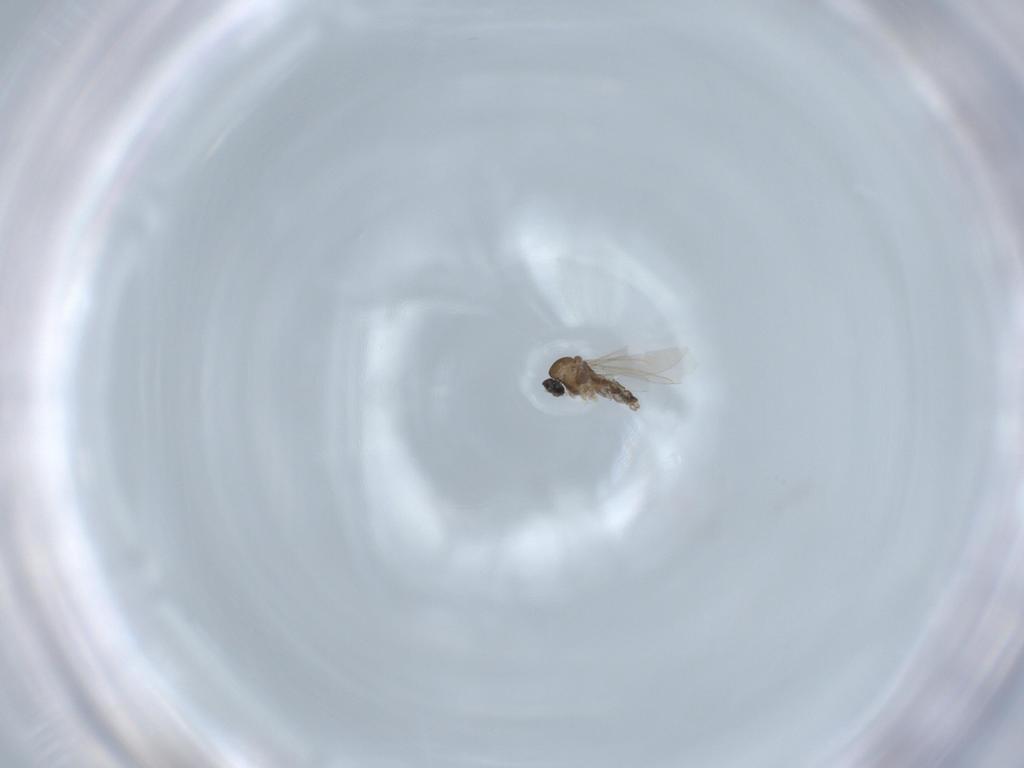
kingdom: Animalia
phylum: Arthropoda
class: Insecta
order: Diptera
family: Cecidomyiidae
